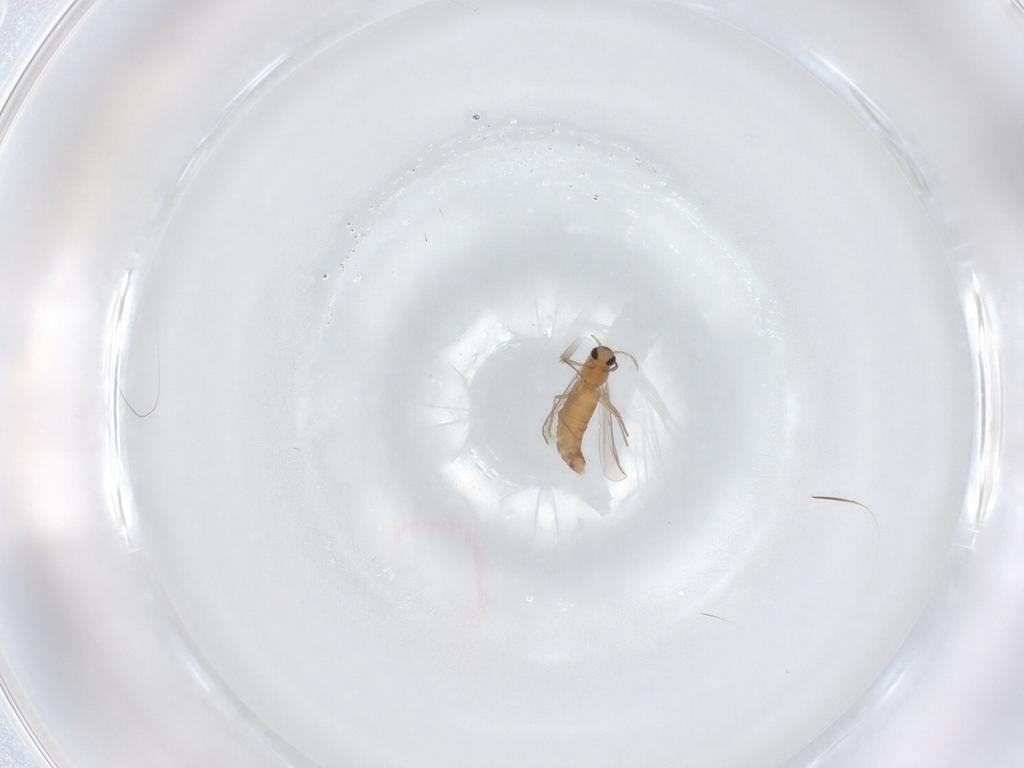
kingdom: Animalia
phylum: Arthropoda
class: Insecta
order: Diptera
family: Chironomidae
